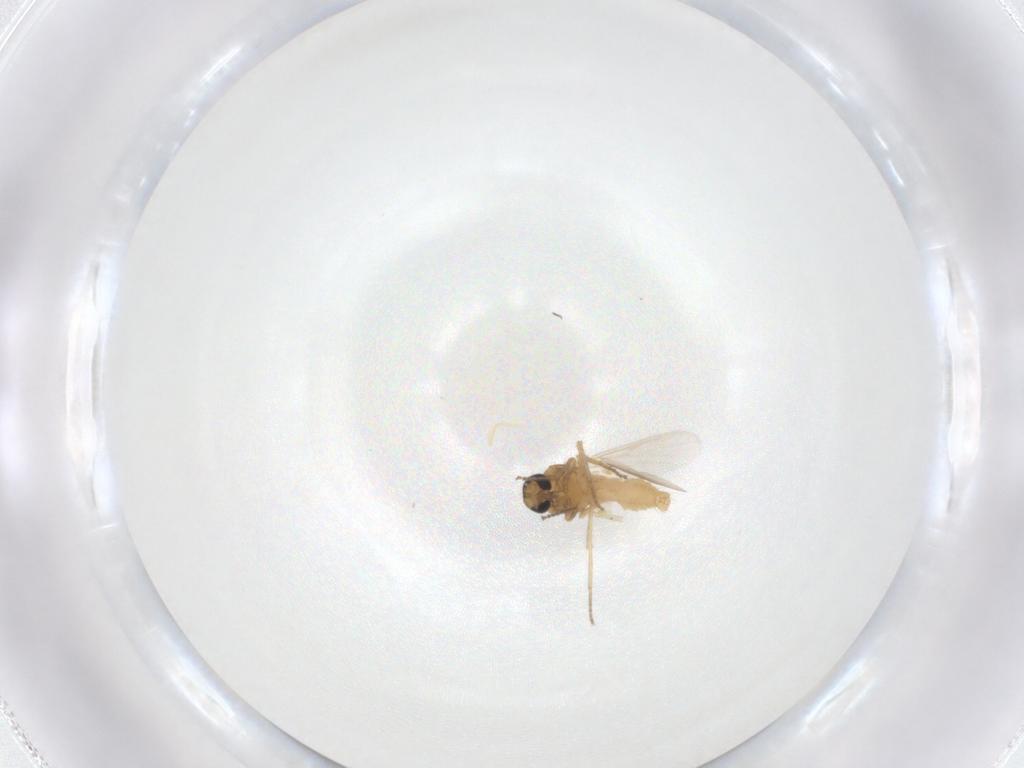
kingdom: Animalia
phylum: Arthropoda
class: Insecta
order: Diptera
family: Ceratopogonidae
